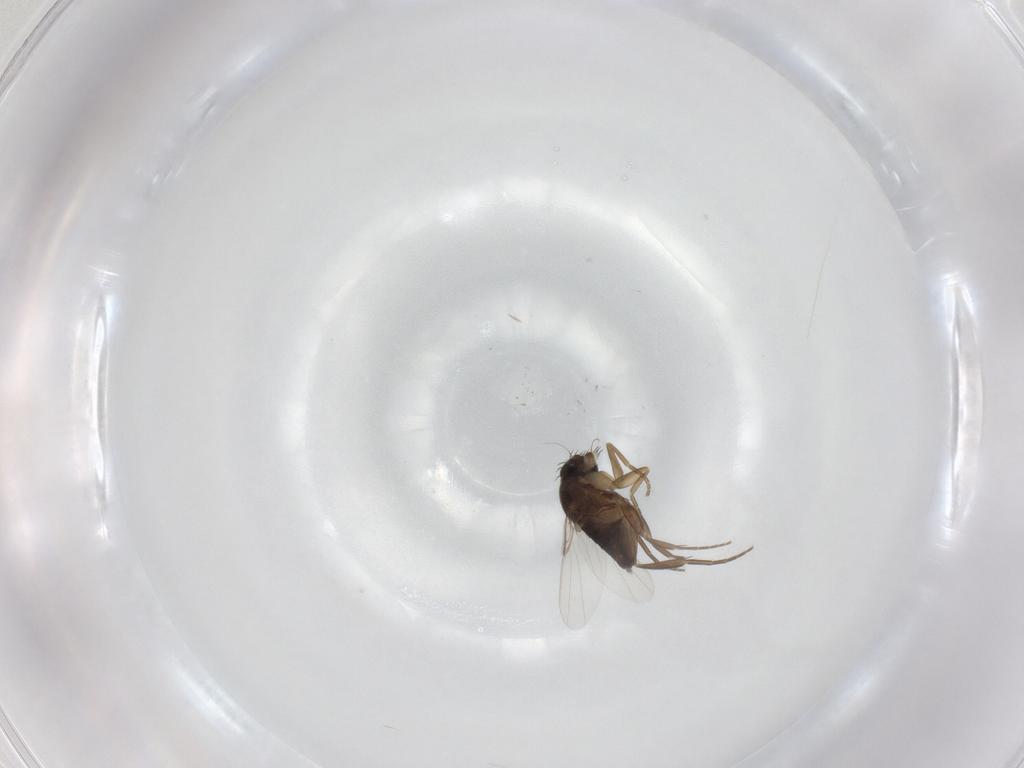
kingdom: Animalia
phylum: Arthropoda
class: Insecta
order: Diptera
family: Phoridae
